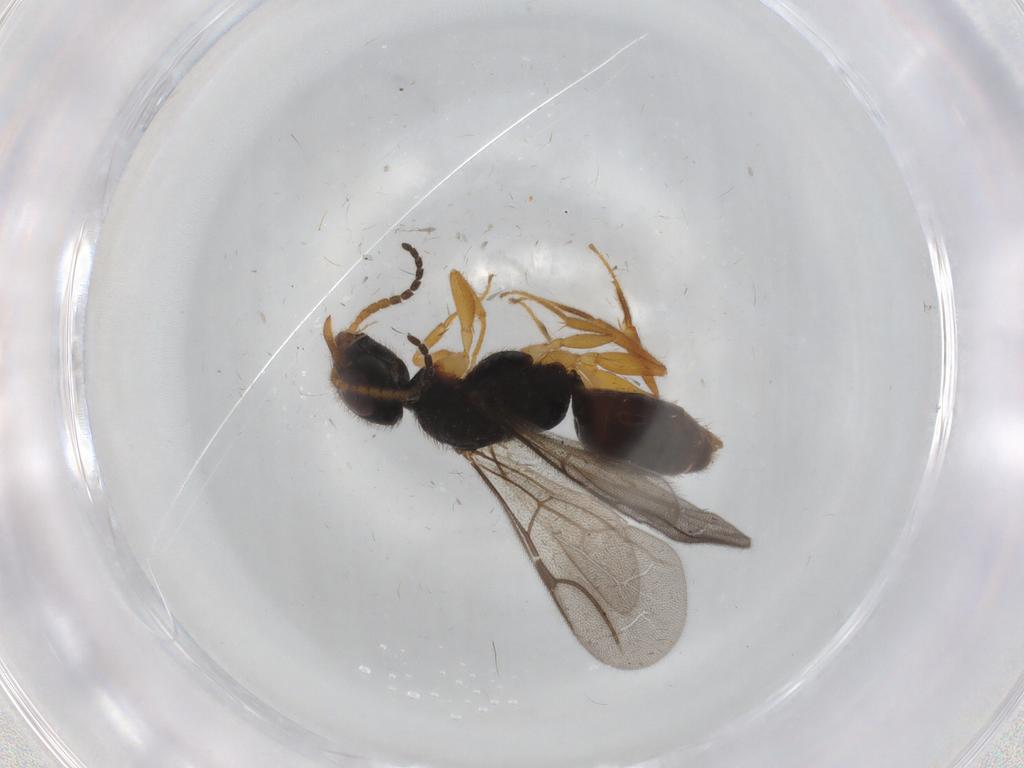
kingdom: Animalia
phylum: Arthropoda
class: Insecta
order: Hymenoptera
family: Bethylidae
